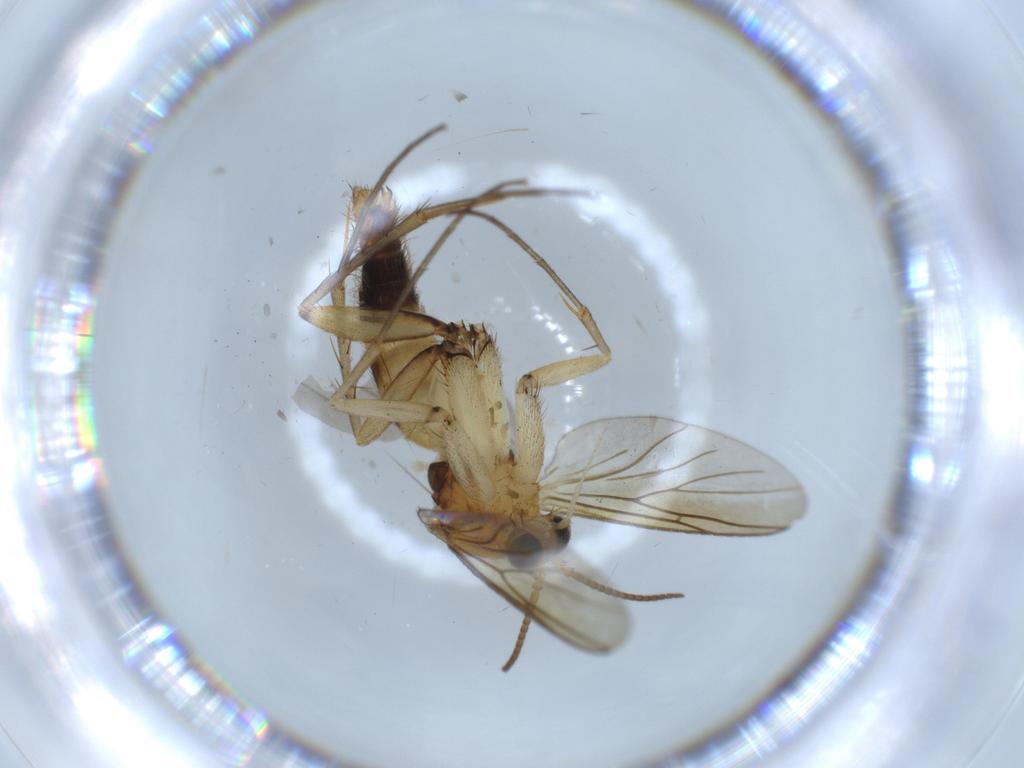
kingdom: Animalia
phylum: Arthropoda
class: Insecta
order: Diptera
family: Sciaridae
